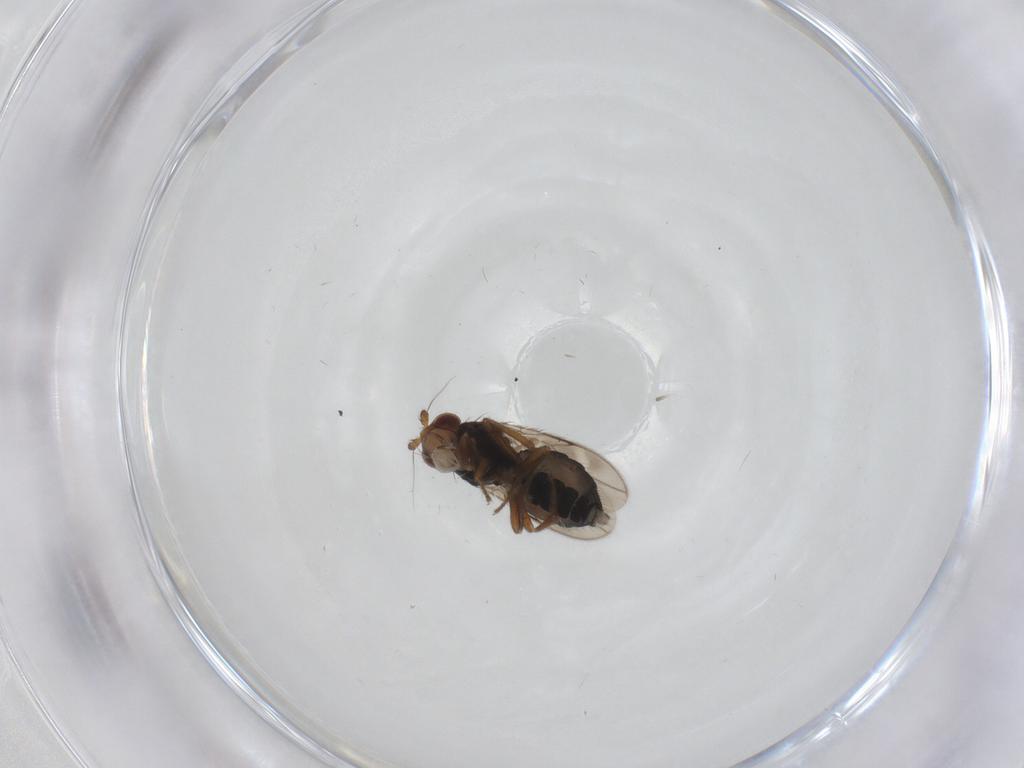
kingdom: Animalia
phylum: Arthropoda
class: Insecta
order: Diptera
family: Sphaeroceridae
